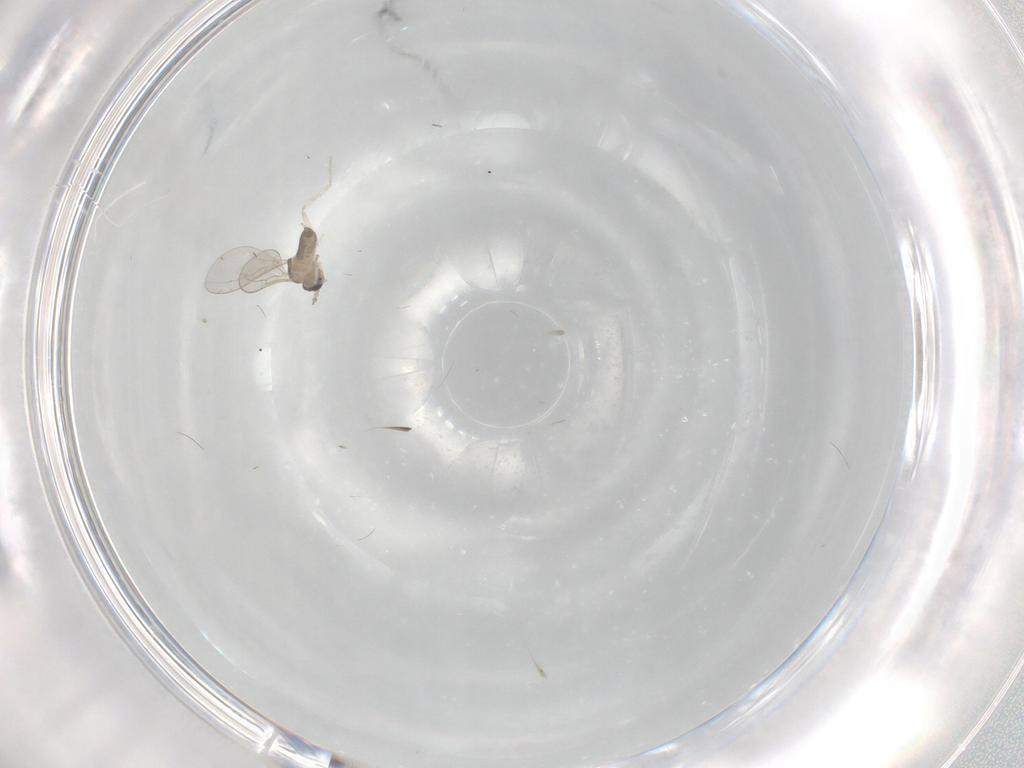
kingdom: Animalia
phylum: Arthropoda
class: Insecta
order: Diptera
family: Cecidomyiidae
